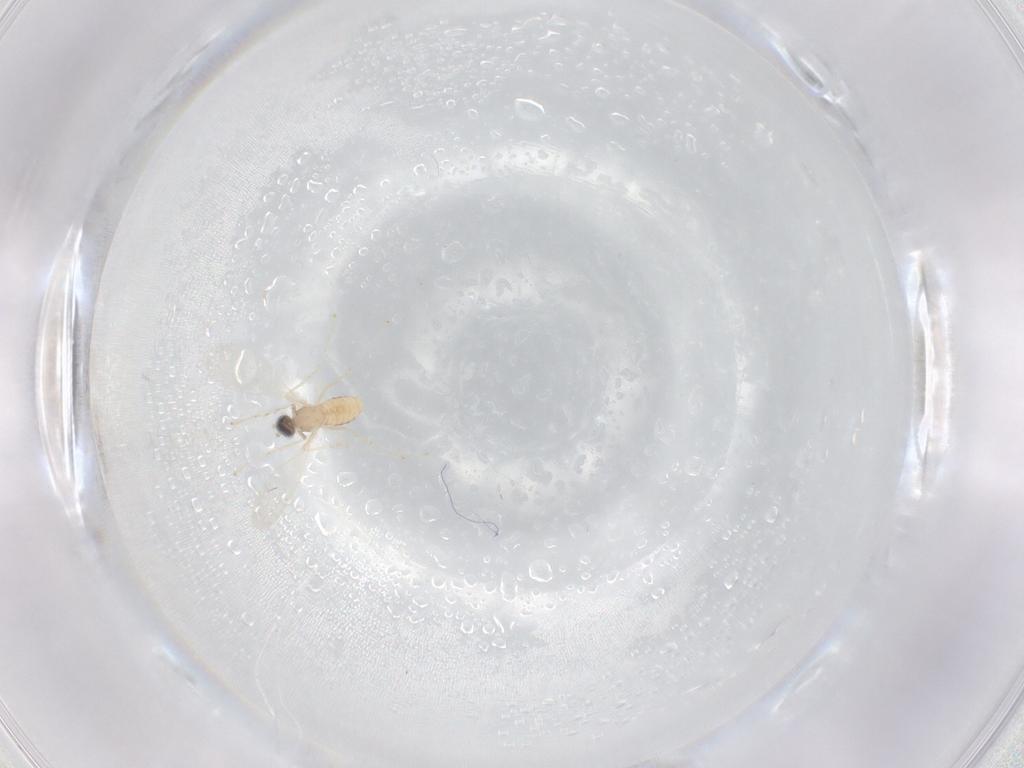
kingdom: Animalia
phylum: Arthropoda
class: Insecta
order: Diptera
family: Cecidomyiidae
